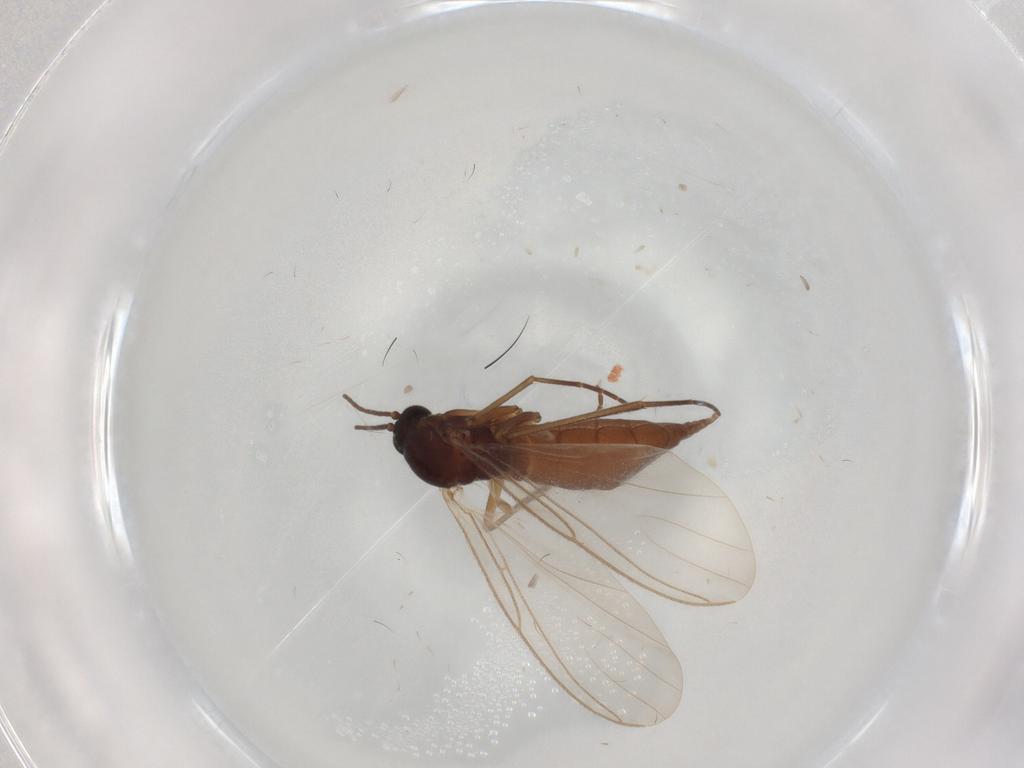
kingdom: Animalia
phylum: Arthropoda
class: Insecta
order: Diptera
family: Sciaridae
